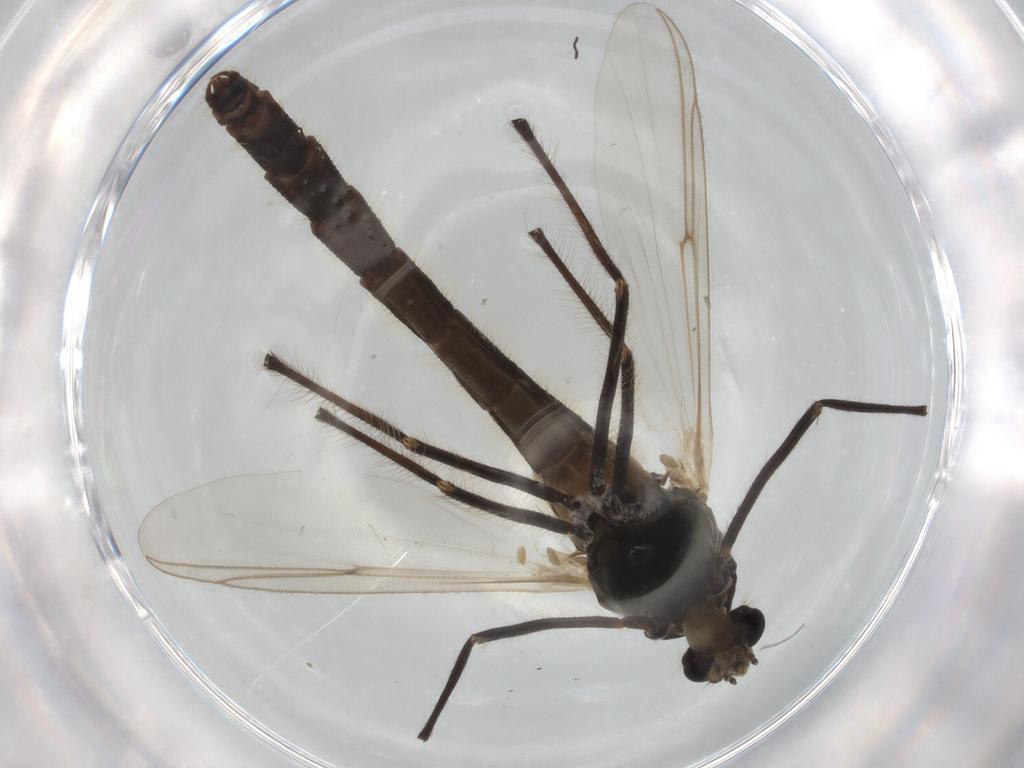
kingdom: Animalia
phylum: Arthropoda
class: Insecta
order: Diptera
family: Chironomidae
